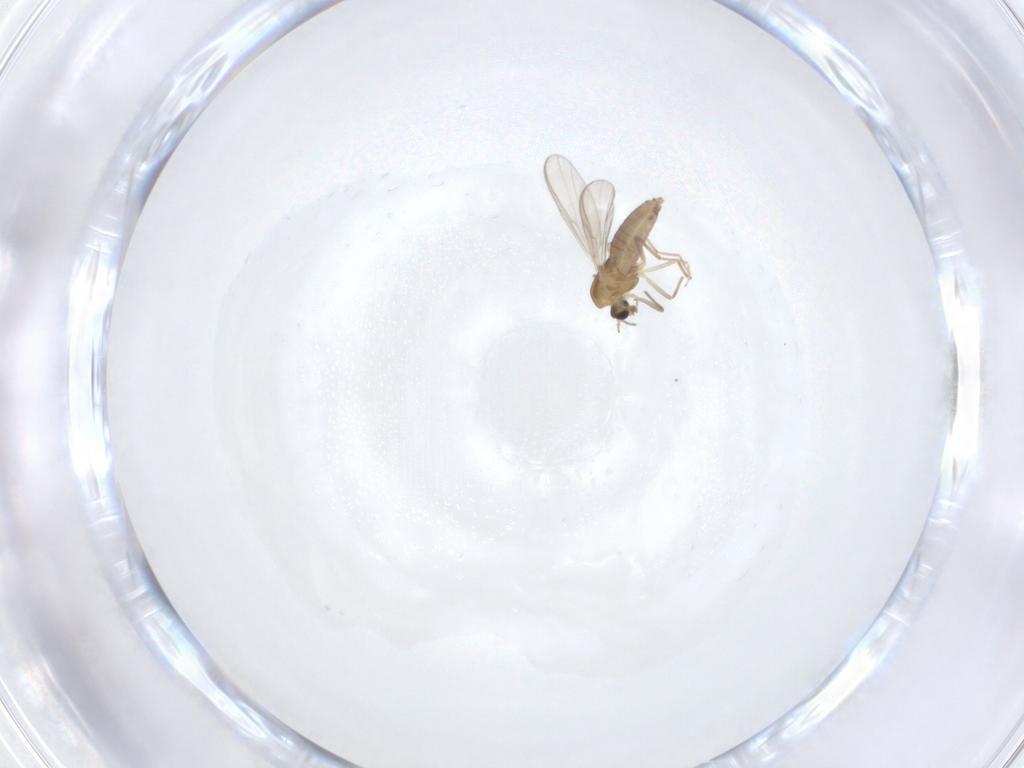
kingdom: Animalia
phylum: Arthropoda
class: Insecta
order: Diptera
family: Chironomidae
